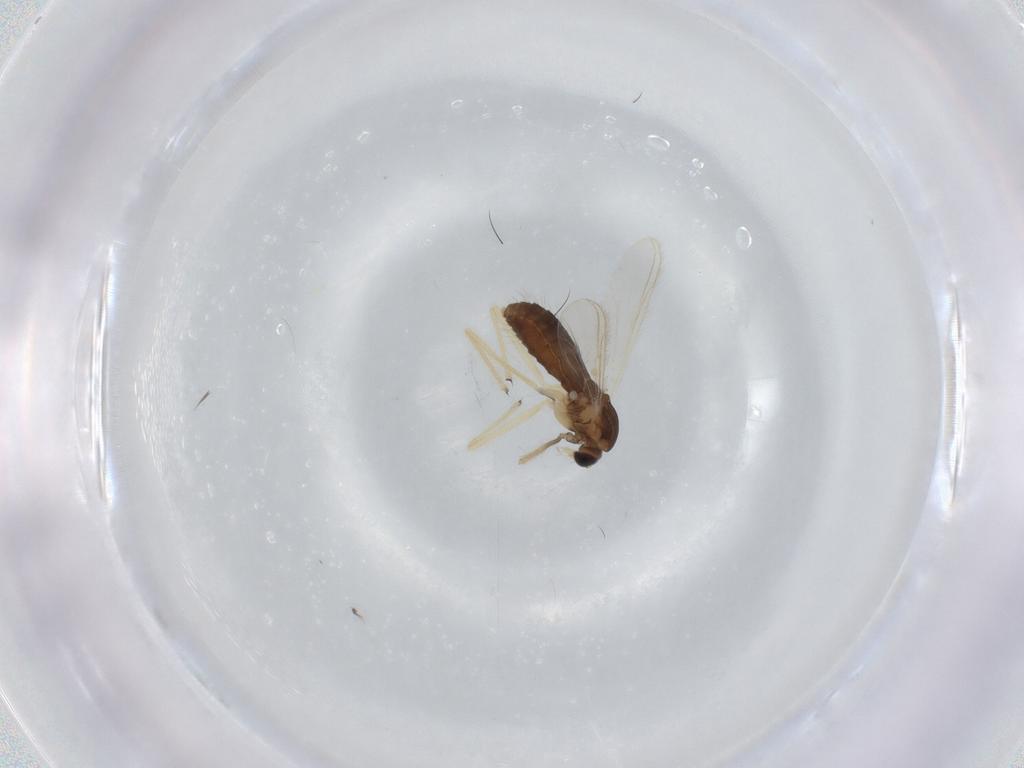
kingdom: Animalia
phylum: Arthropoda
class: Insecta
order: Diptera
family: Chironomidae
